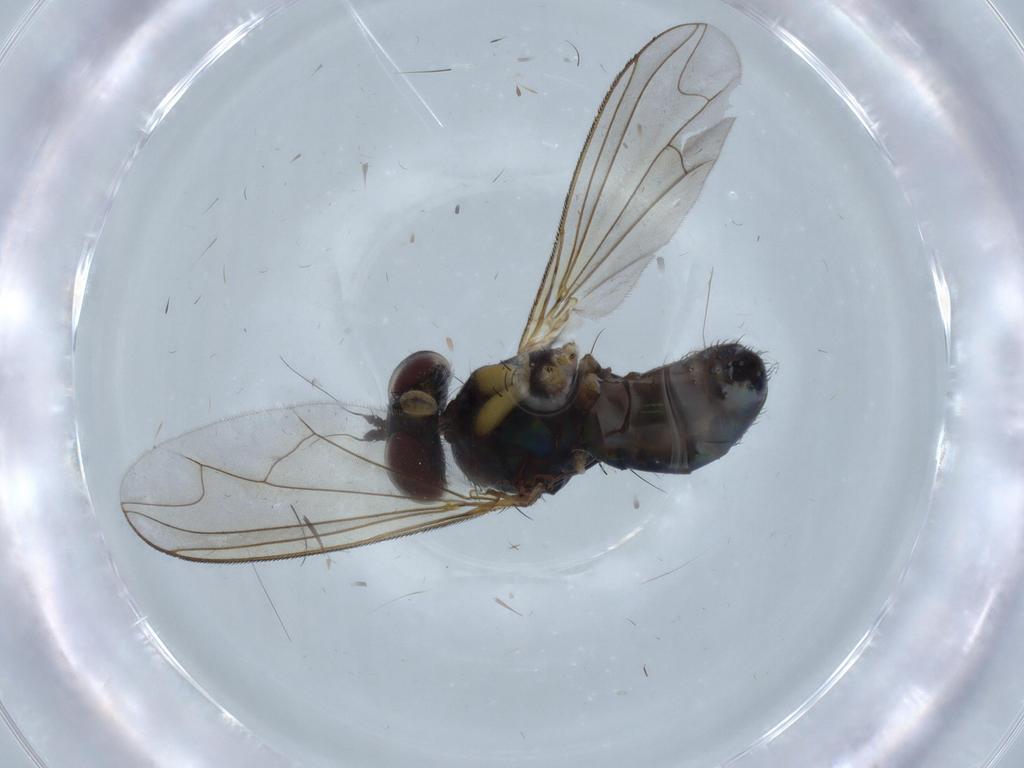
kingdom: Animalia
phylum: Arthropoda
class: Insecta
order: Diptera
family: Dolichopodidae
